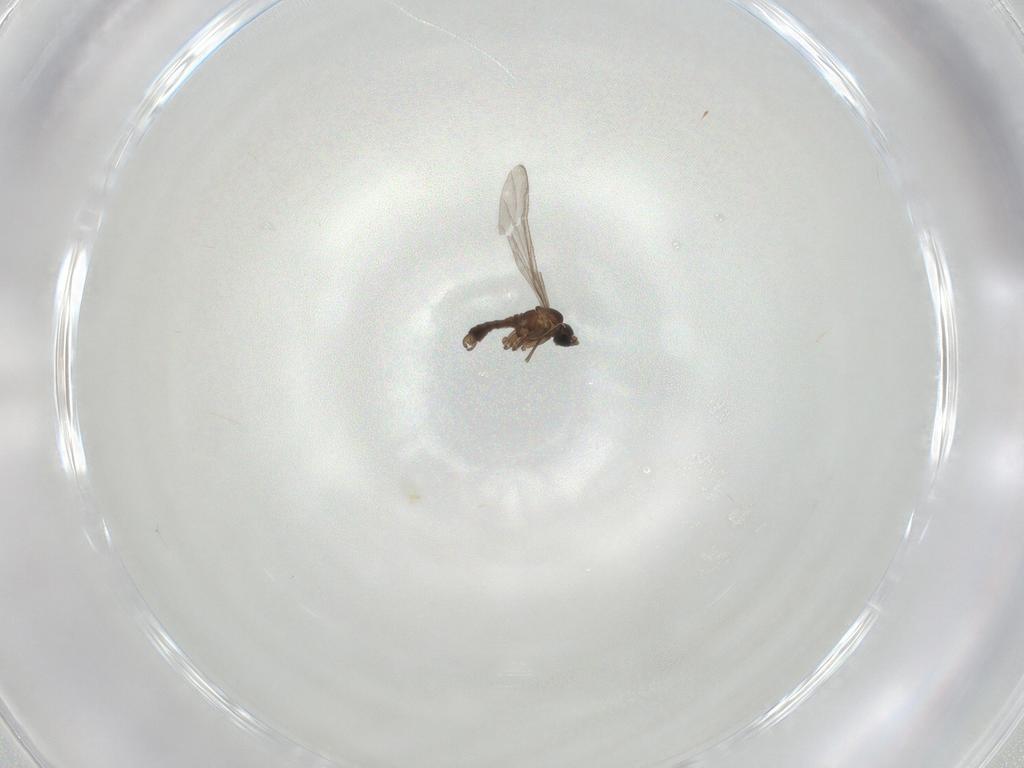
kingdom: Animalia
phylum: Arthropoda
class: Insecta
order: Diptera
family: Sciaridae
